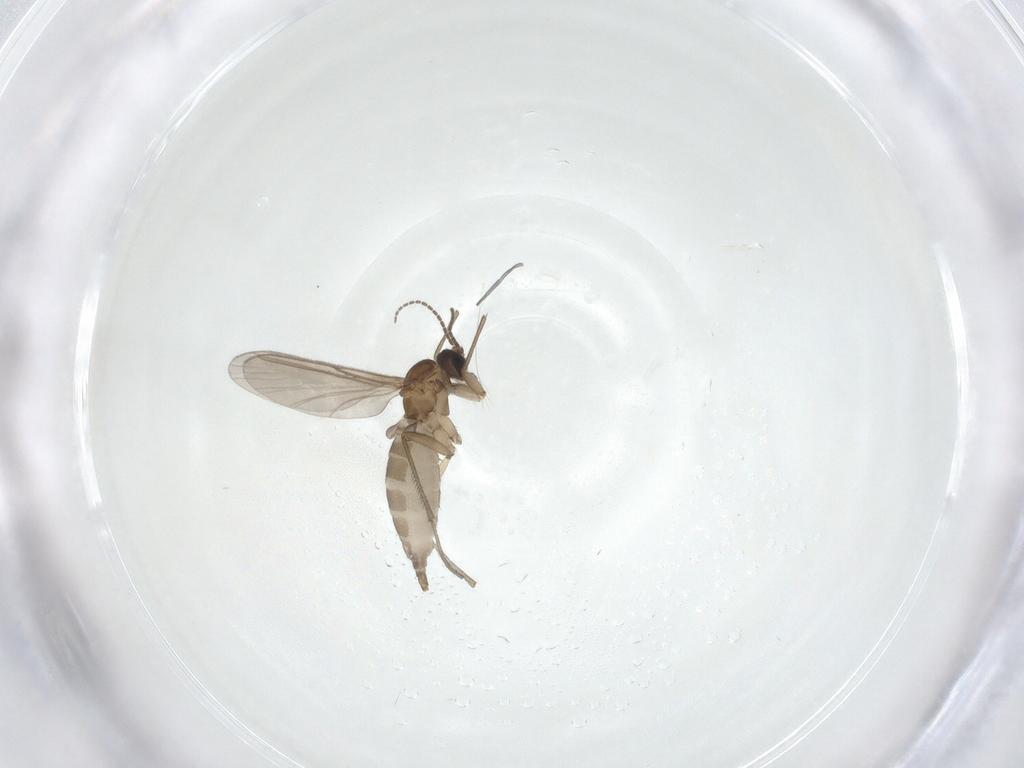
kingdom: Animalia
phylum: Arthropoda
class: Insecta
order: Diptera
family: Sciaridae
